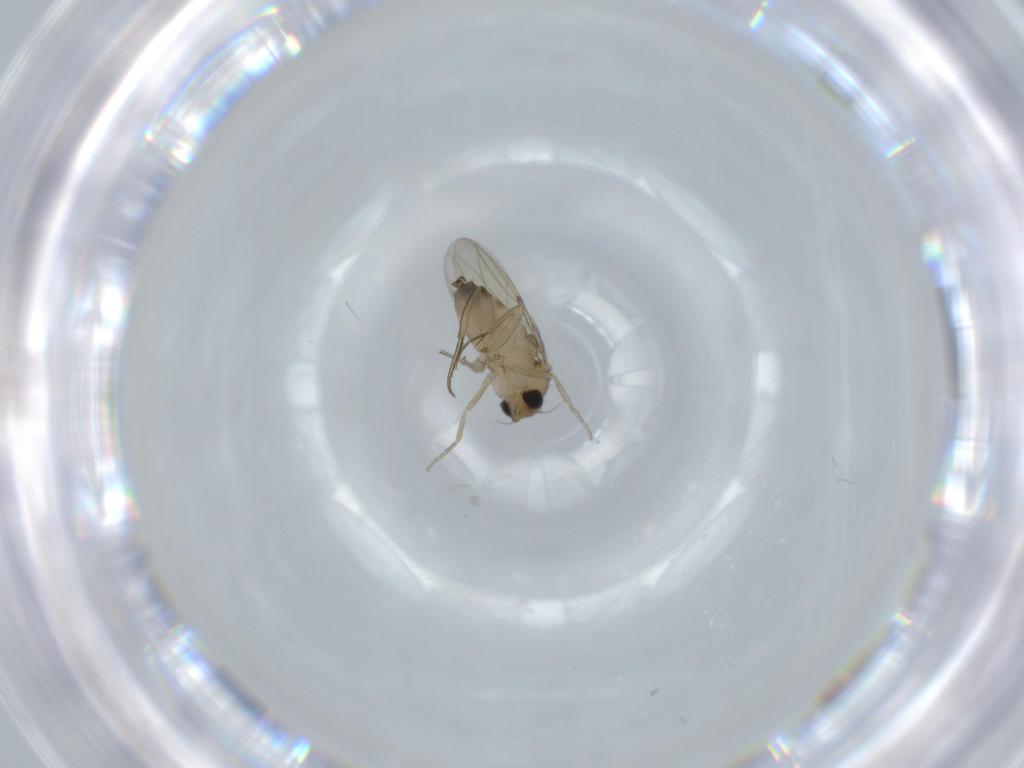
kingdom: Animalia
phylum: Arthropoda
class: Insecta
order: Diptera
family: Phoridae
